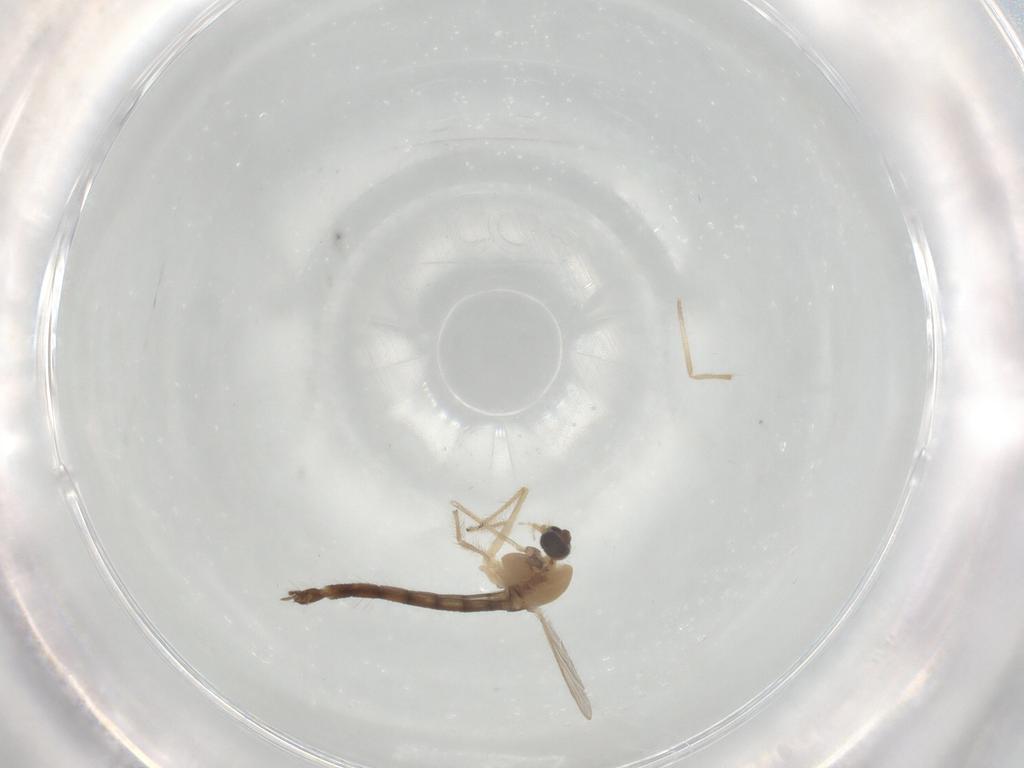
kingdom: Animalia
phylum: Arthropoda
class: Insecta
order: Diptera
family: Chironomidae
